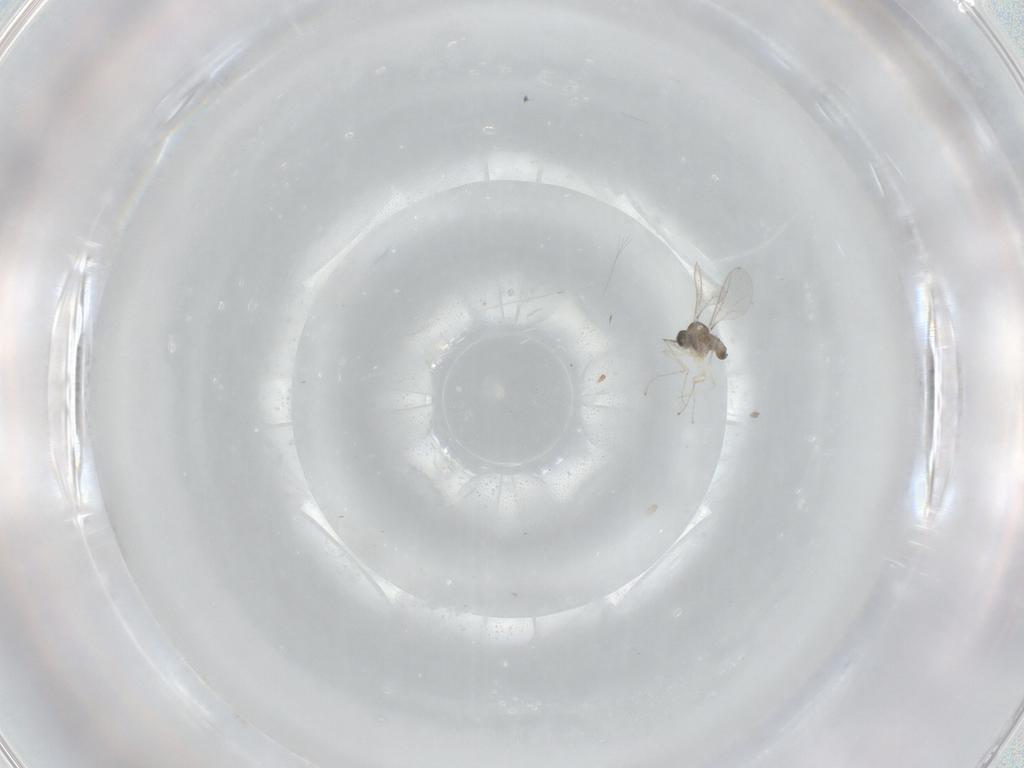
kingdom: Animalia
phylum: Arthropoda
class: Insecta
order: Diptera
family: Cecidomyiidae
